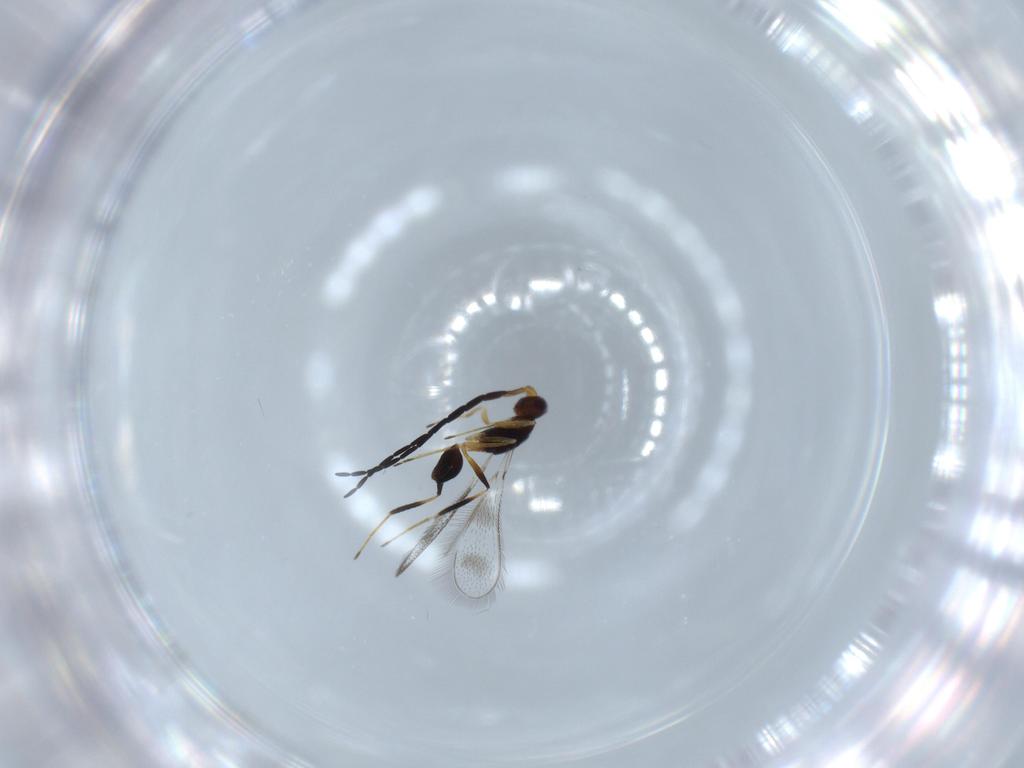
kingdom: Animalia
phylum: Arthropoda
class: Insecta
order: Hymenoptera
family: Mymaridae
